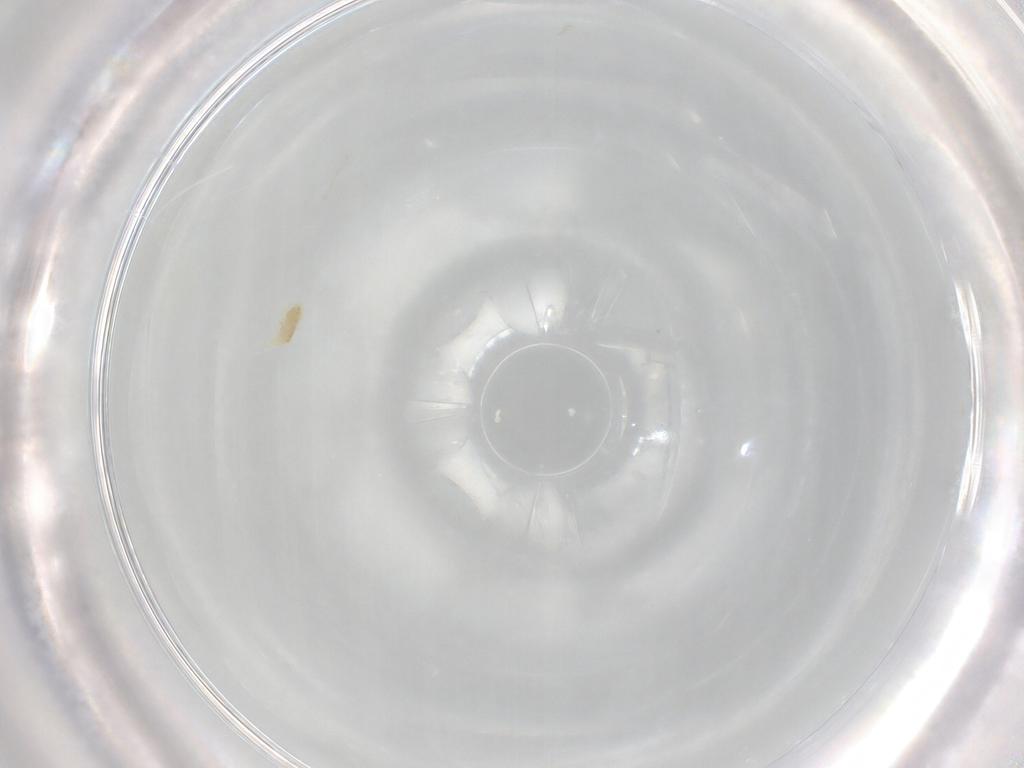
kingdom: Animalia
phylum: Arthropoda
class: Arachnida
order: Trombidiformes
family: Eupodidae
